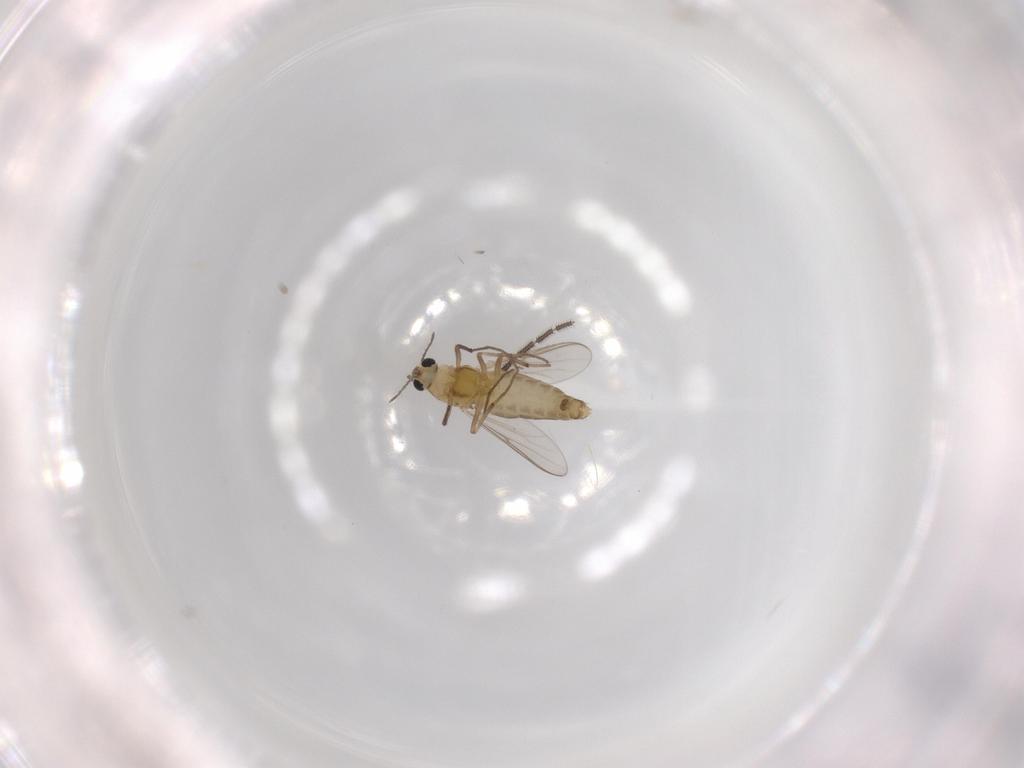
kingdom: Animalia
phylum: Arthropoda
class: Insecta
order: Diptera
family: Chironomidae
